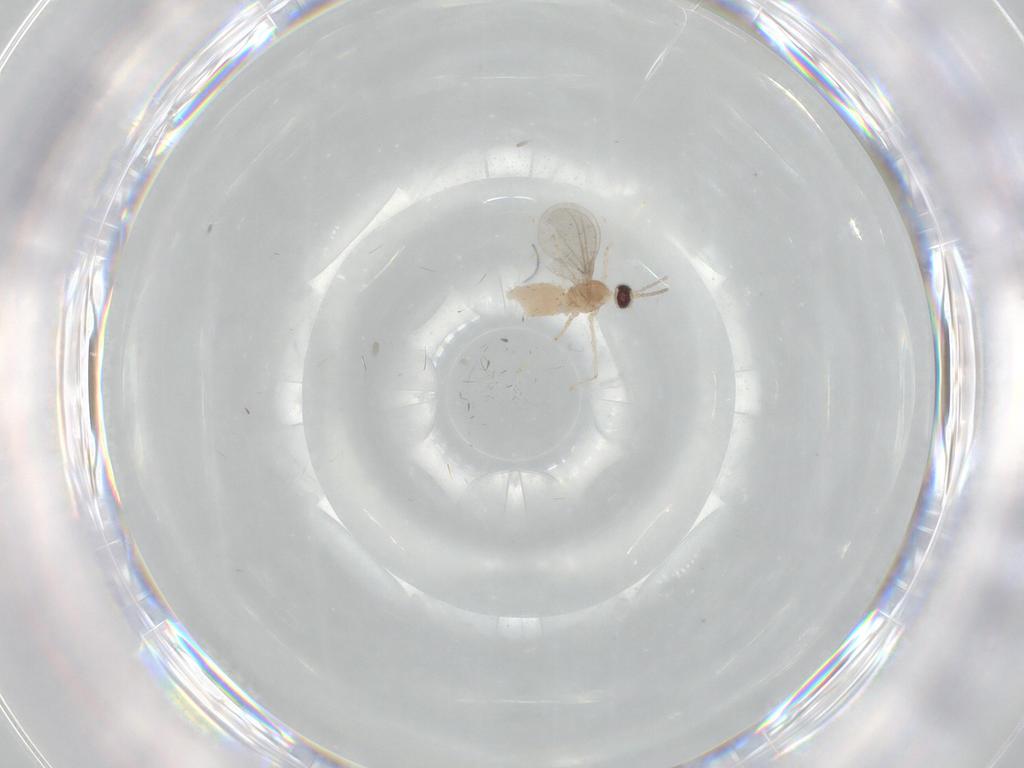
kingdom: Animalia
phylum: Arthropoda
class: Insecta
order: Diptera
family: Cecidomyiidae
